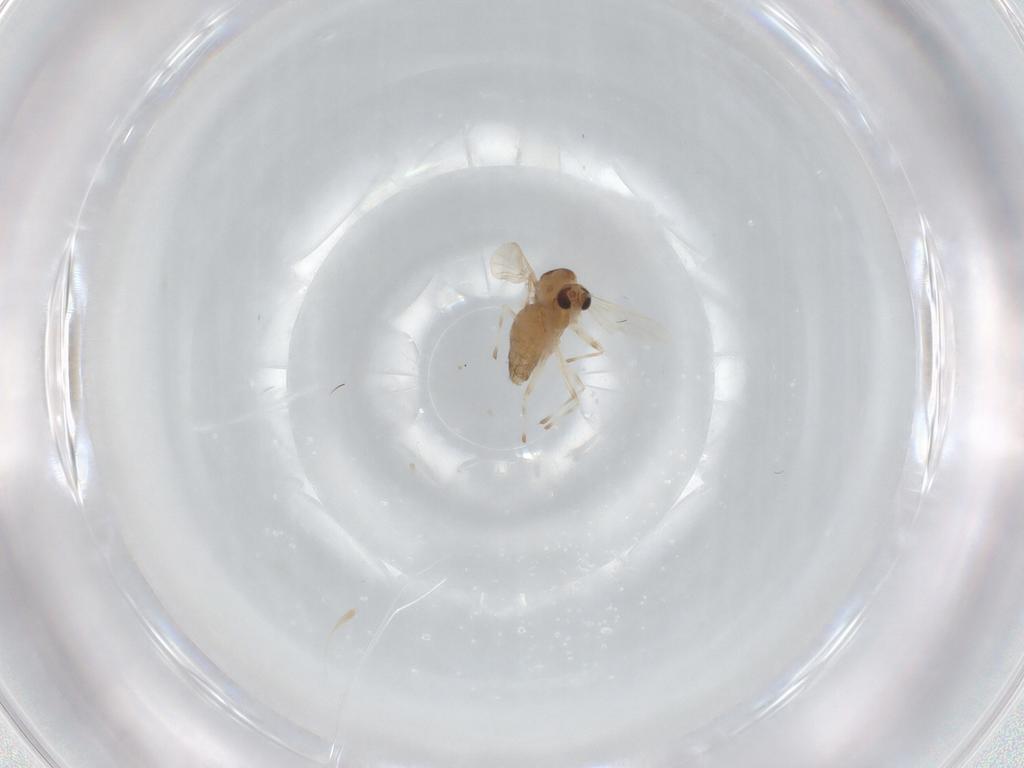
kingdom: Animalia
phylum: Arthropoda
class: Insecta
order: Diptera
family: Chironomidae
